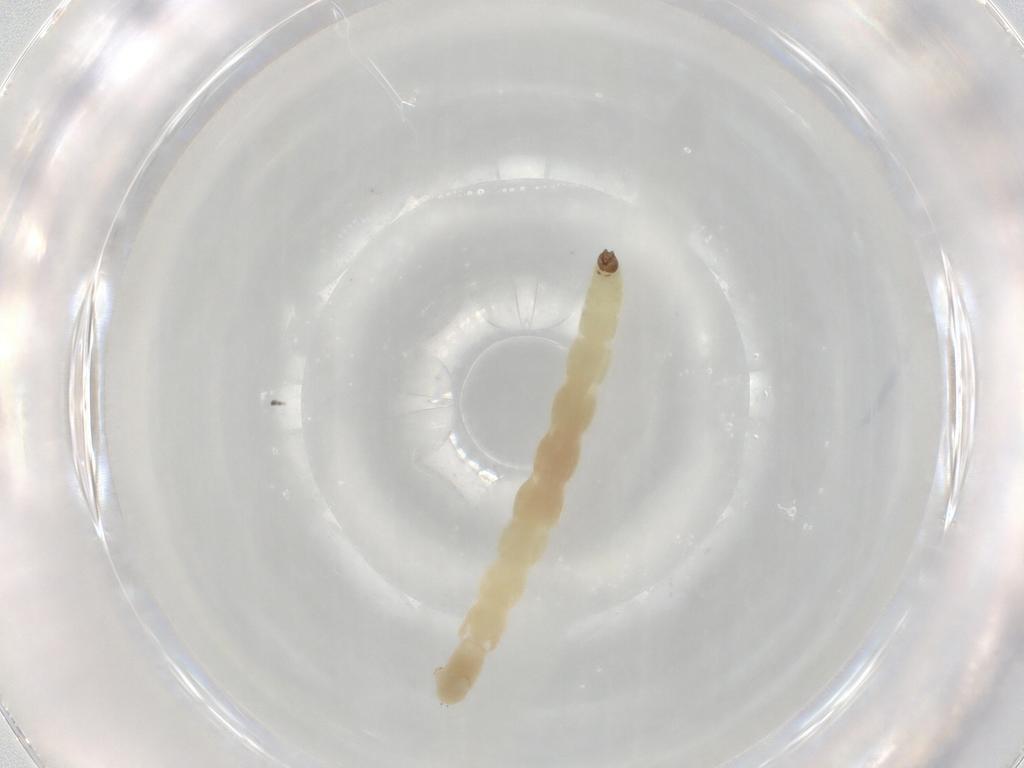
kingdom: Animalia
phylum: Arthropoda
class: Insecta
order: Diptera
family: Chironomidae
